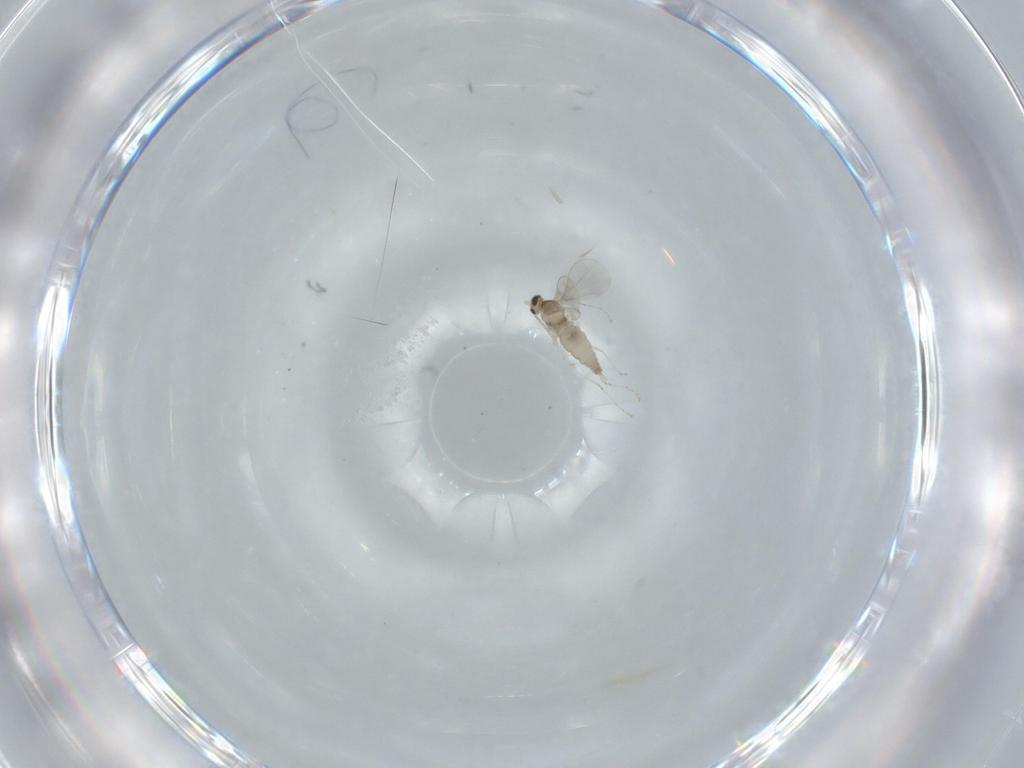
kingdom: Animalia
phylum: Arthropoda
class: Insecta
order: Diptera
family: Cecidomyiidae
